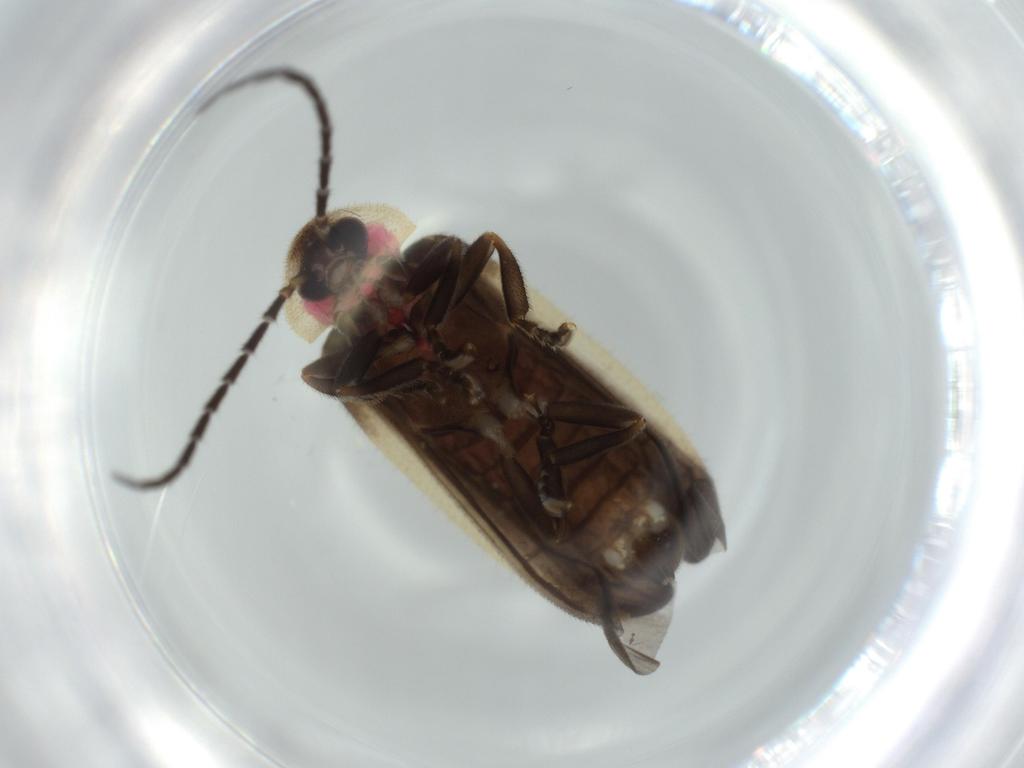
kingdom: Animalia
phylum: Arthropoda
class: Insecta
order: Coleoptera
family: Lampyridae
